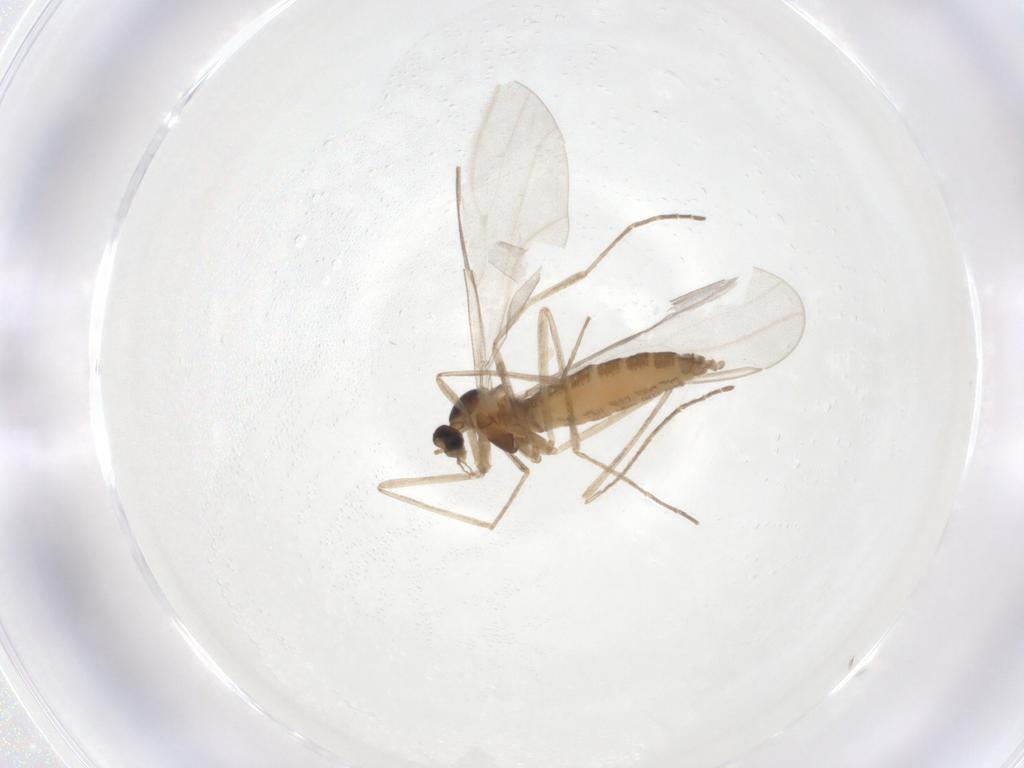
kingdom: Animalia
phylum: Arthropoda
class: Insecta
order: Diptera
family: Cecidomyiidae
